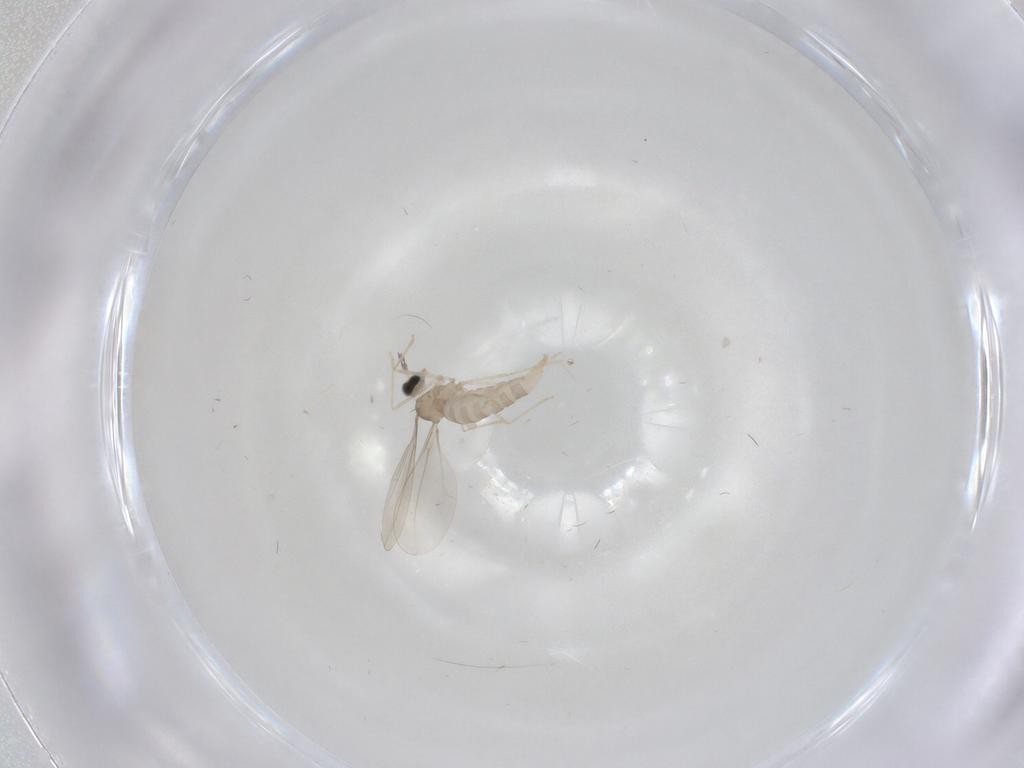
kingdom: Animalia
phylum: Arthropoda
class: Insecta
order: Diptera
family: Cecidomyiidae
